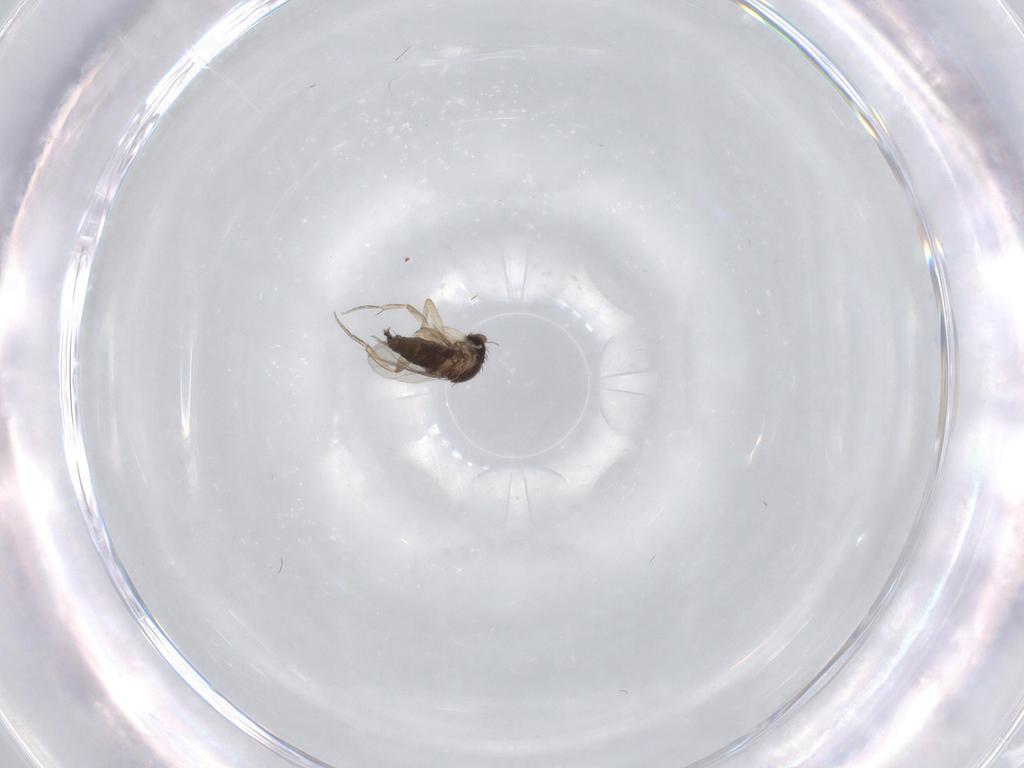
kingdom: Animalia
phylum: Arthropoda
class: Insecta
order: Diptera
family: Phoridae
